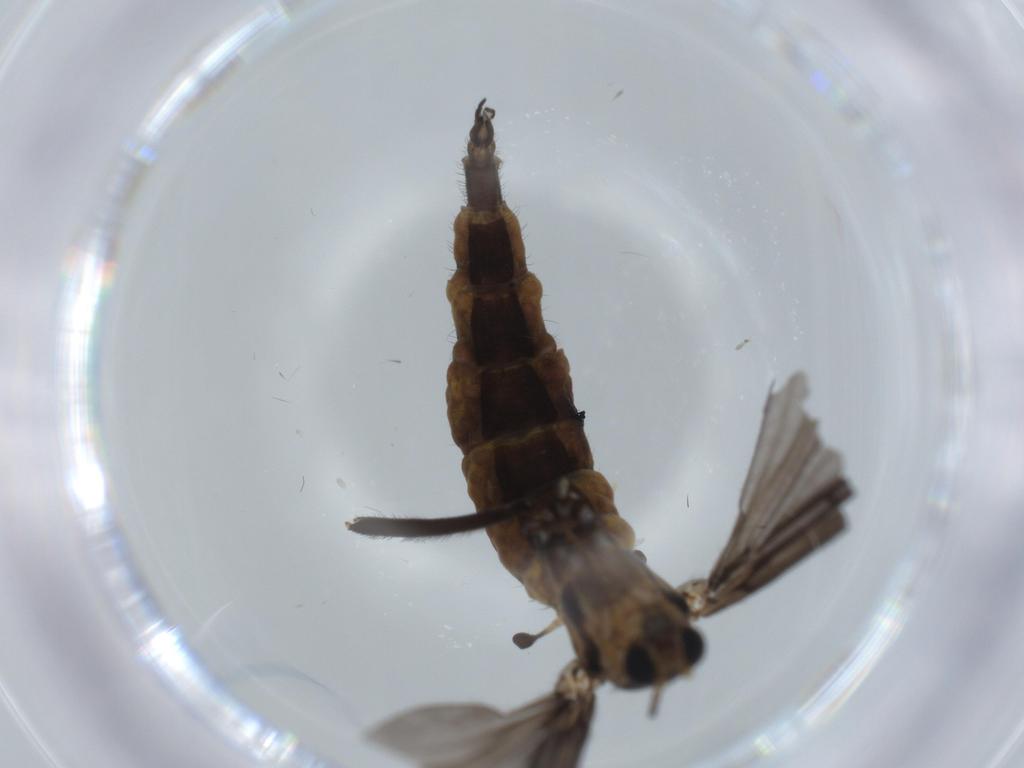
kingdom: Animalia
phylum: Arthropoda
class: Insecta
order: Diptera
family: Sciaridae
